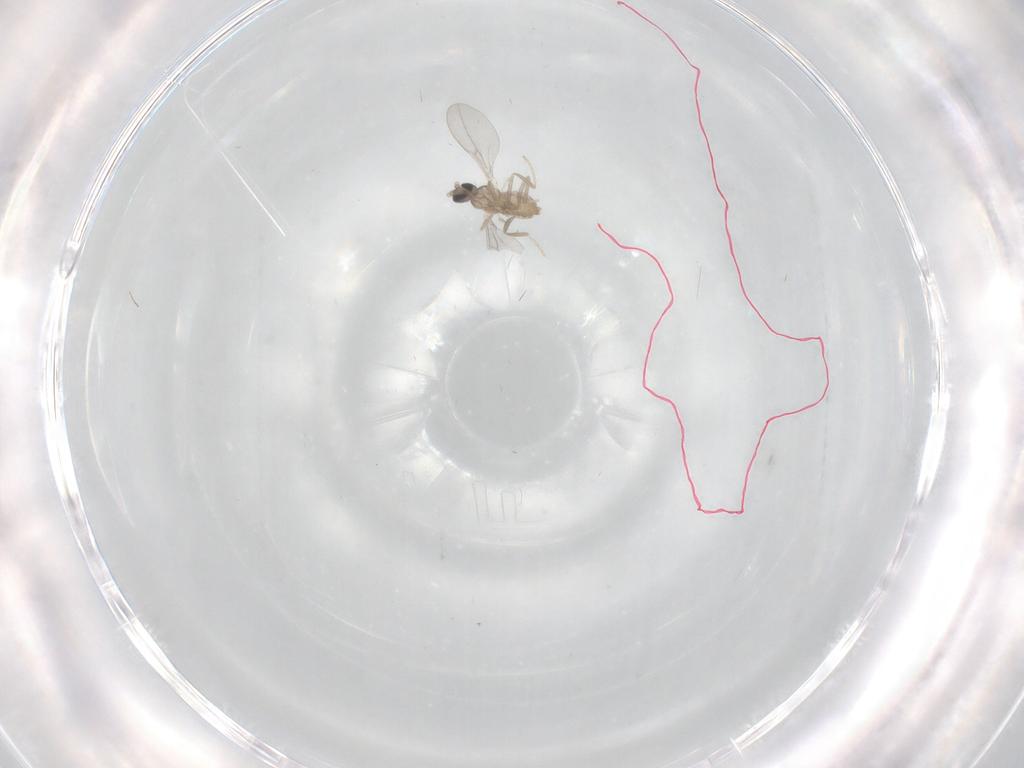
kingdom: Animalia
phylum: Arthropoda
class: Insecta
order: Diptera
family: Cecidomyiidae
